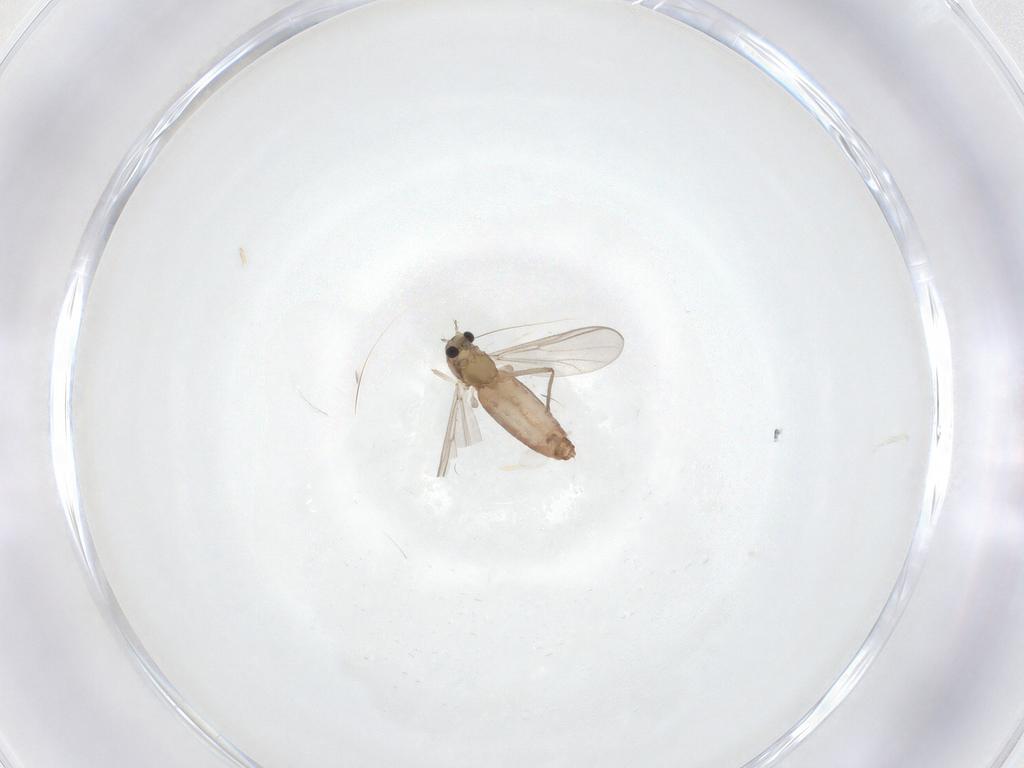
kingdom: Animalia
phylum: Arthropoda
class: Insecta
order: Diptera
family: Chironomidae
